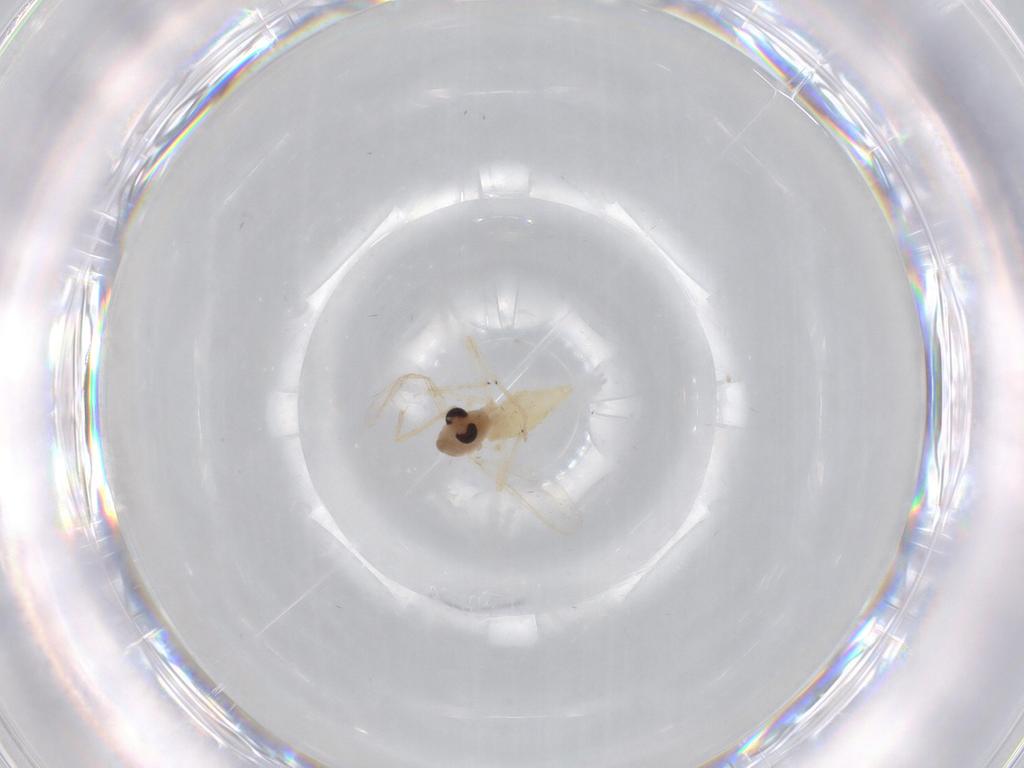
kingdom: Animalia
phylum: Arthropoda
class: Insecta
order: Diptera
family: Chironomidae
